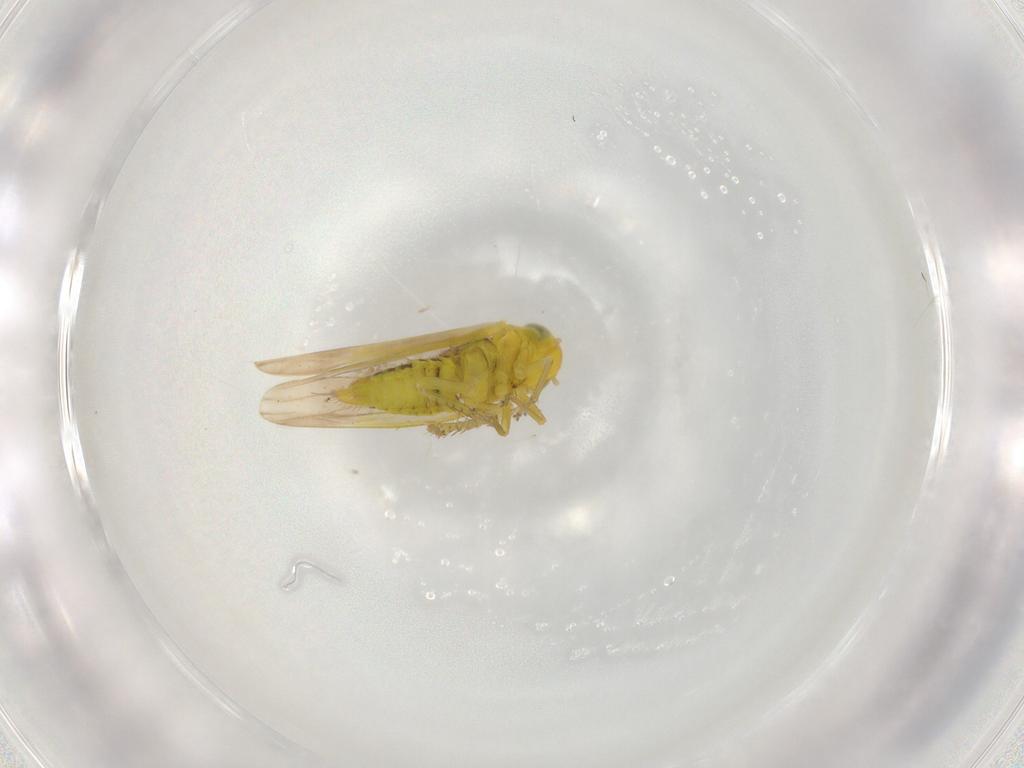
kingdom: Animalia
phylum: Arthropoda
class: Insecta
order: Hemiptera
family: Cicadellidae
